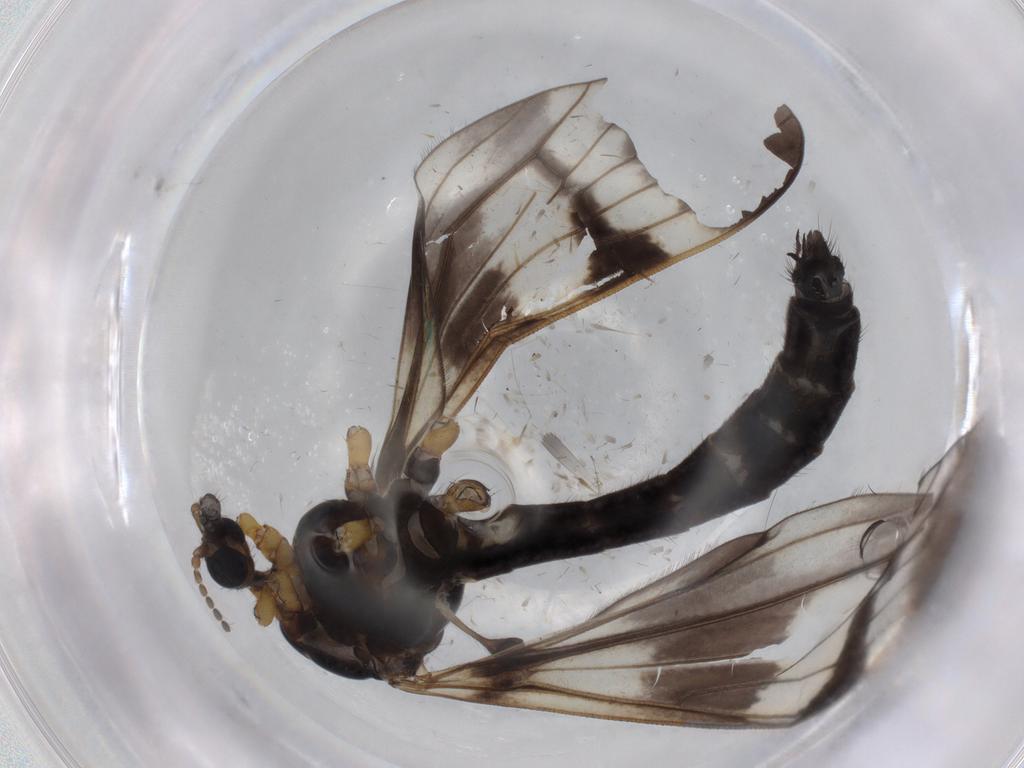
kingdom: Animalia
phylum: Arthropoda
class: Insecta
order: Diptera
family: Limoniidae
